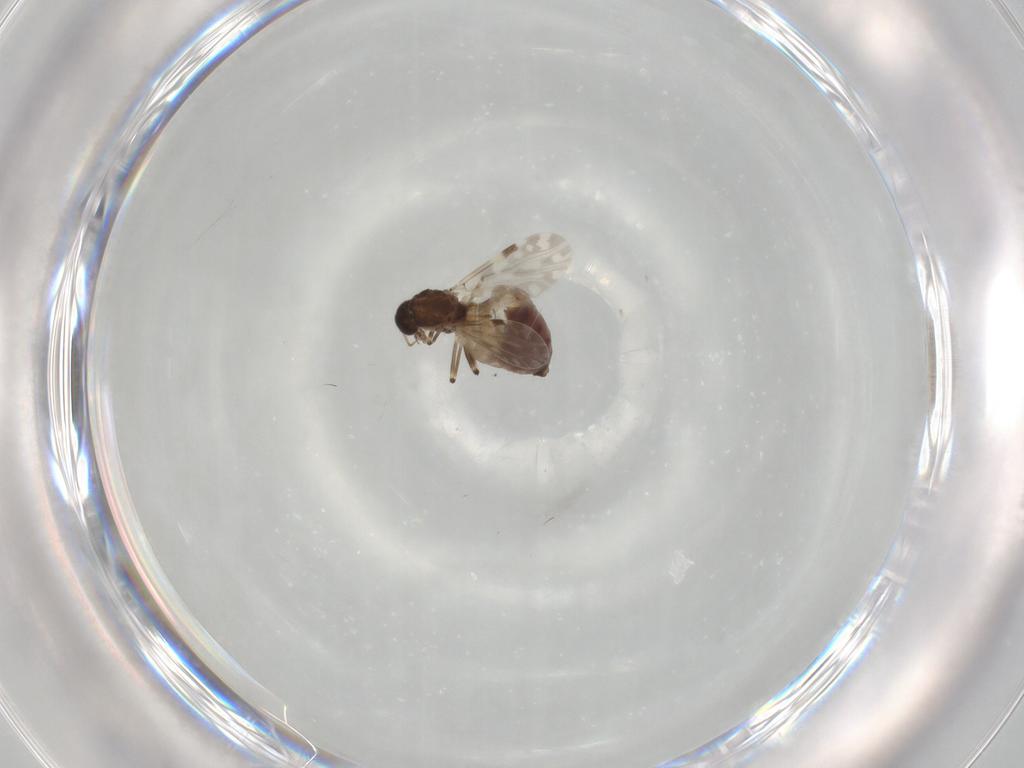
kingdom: Animalia
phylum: Arthropoda
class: Insecta
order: Diptera
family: Ceratopogonidae
